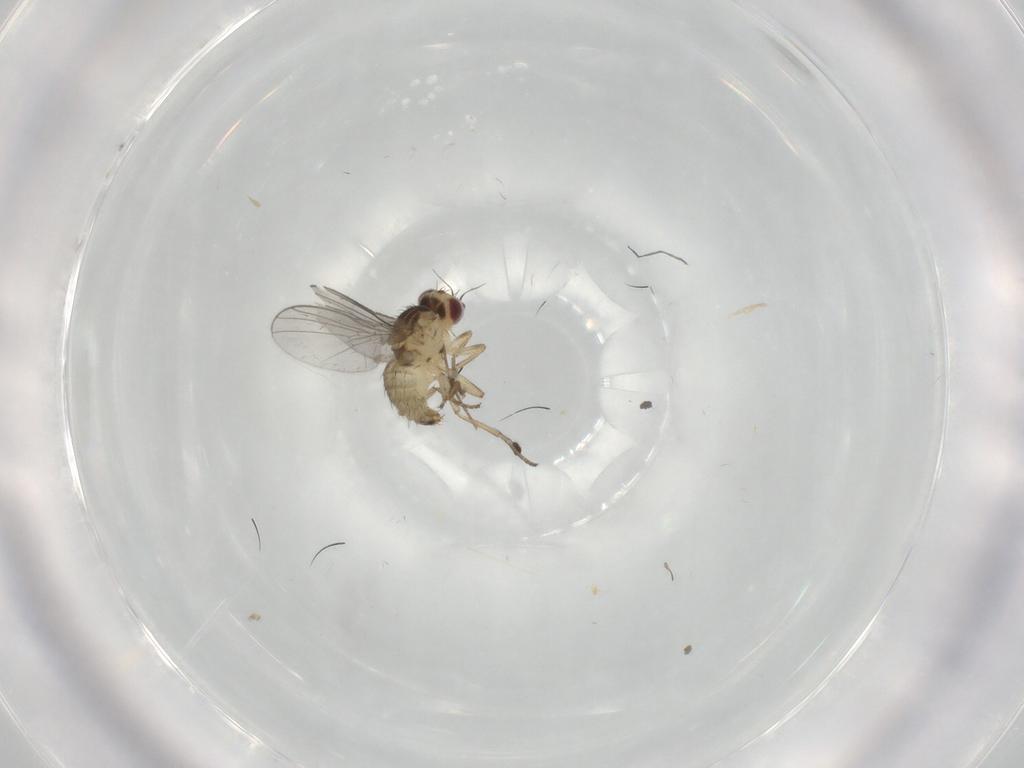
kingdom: Animalia
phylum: Arthropoda
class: Insecta
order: Diptera
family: Agromyzidae
